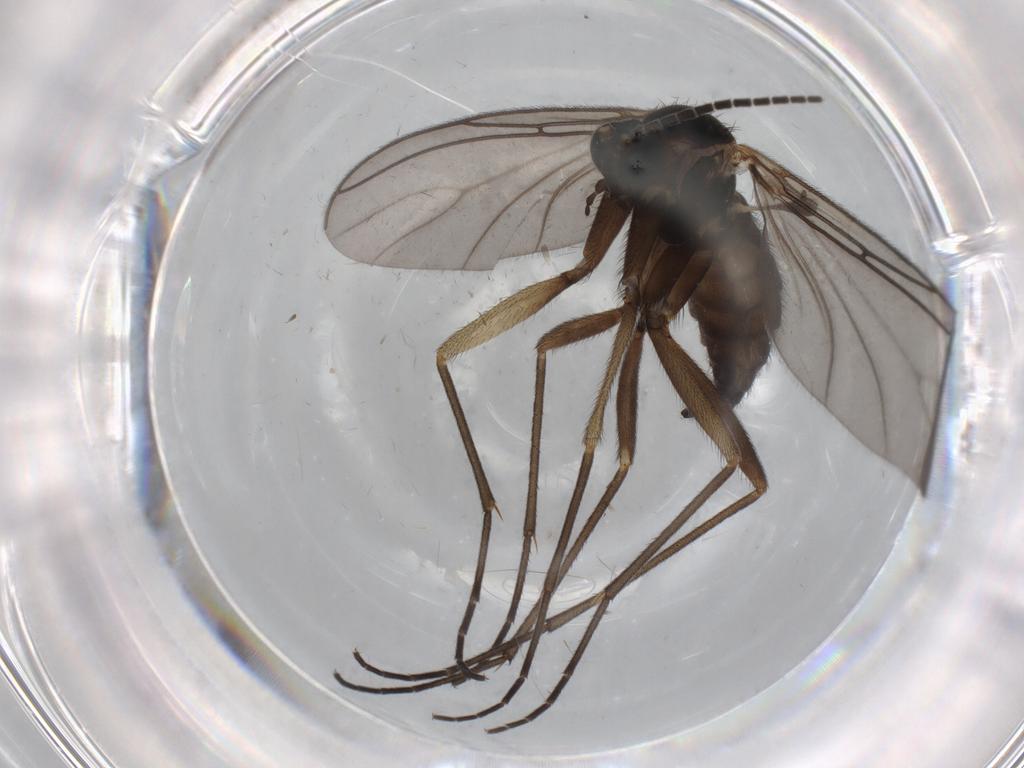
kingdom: Animalia
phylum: Arthropoda
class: Insecta
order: Diptera
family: Sciaridae
